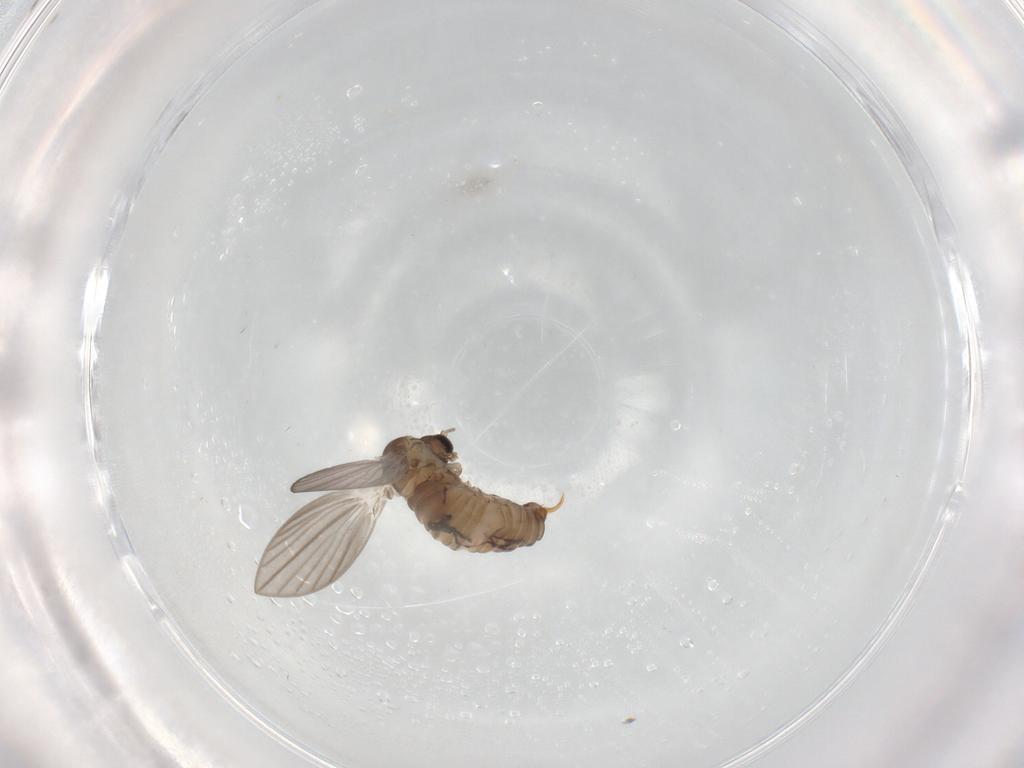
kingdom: Animalia
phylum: Arthropoda
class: Insecta
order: Diptera
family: Psychodidae
